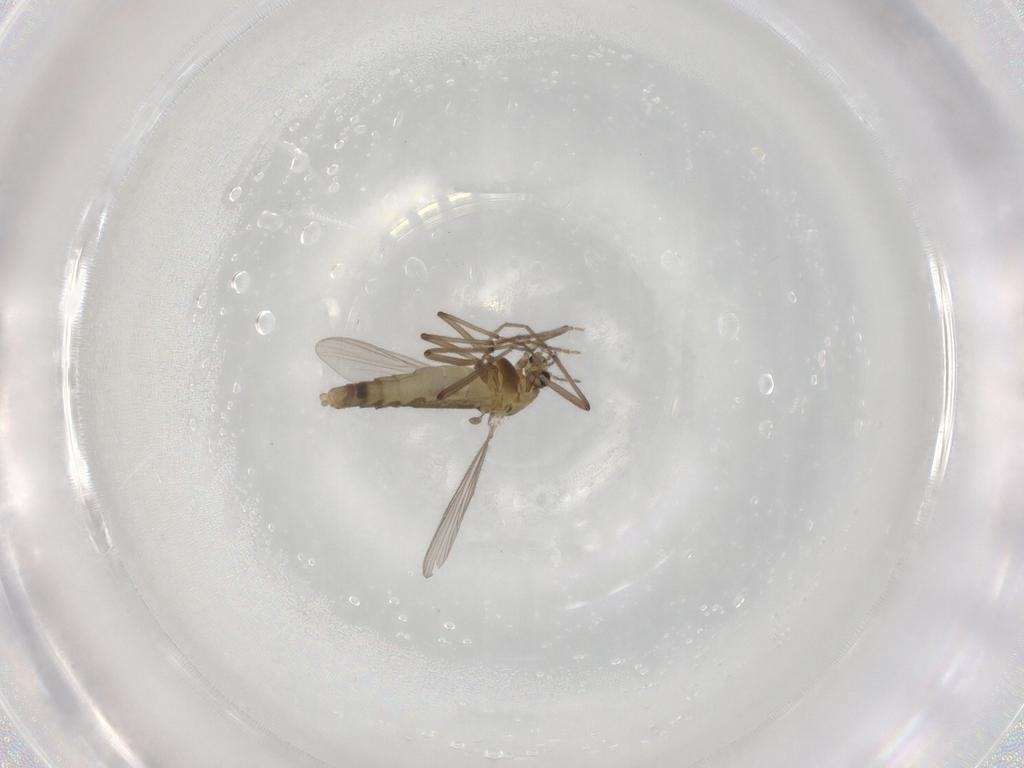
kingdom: Animalia
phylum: Arthropoda
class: Insecta
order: Diptera
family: Chironomidae
